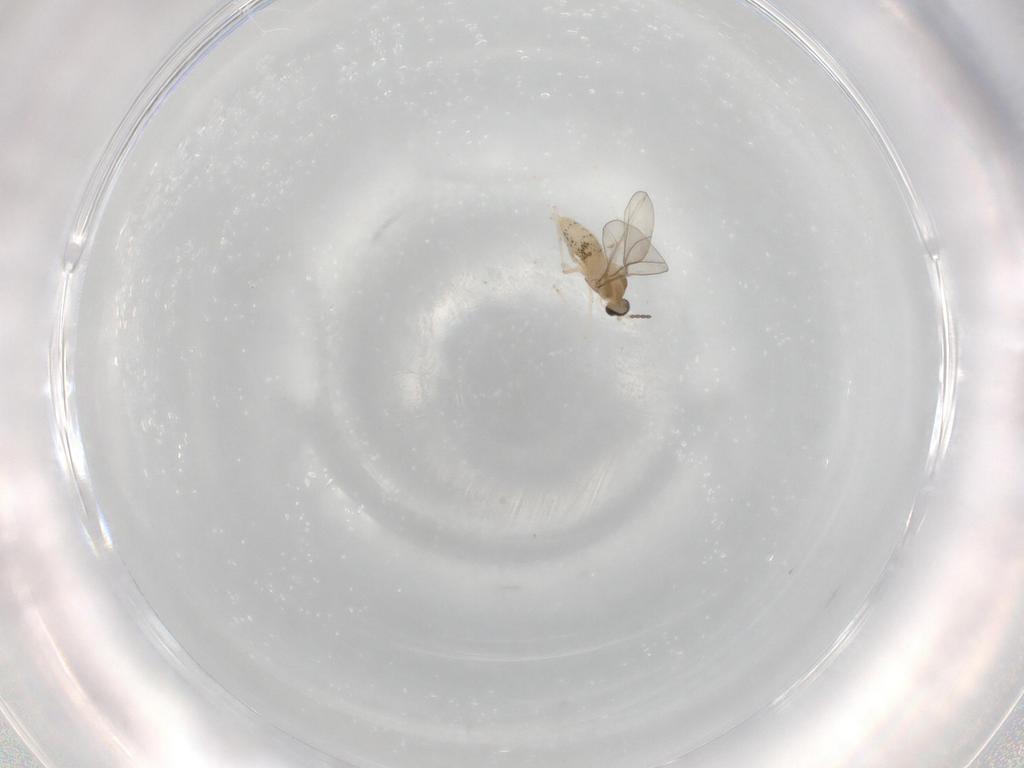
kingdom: Animalia
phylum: Arthropoda
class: Insecta
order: Diptera
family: Cecidomyiidae
